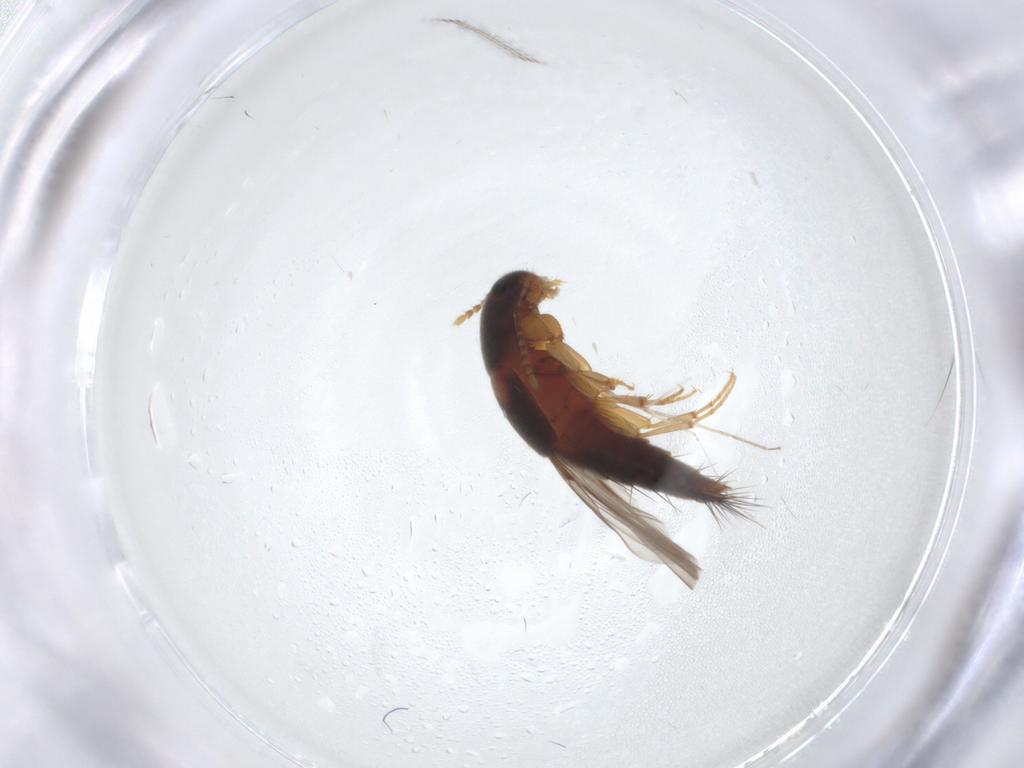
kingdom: Animalia
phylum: Arthropoda
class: Insecta
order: Coleoptera
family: Staphylinidae
